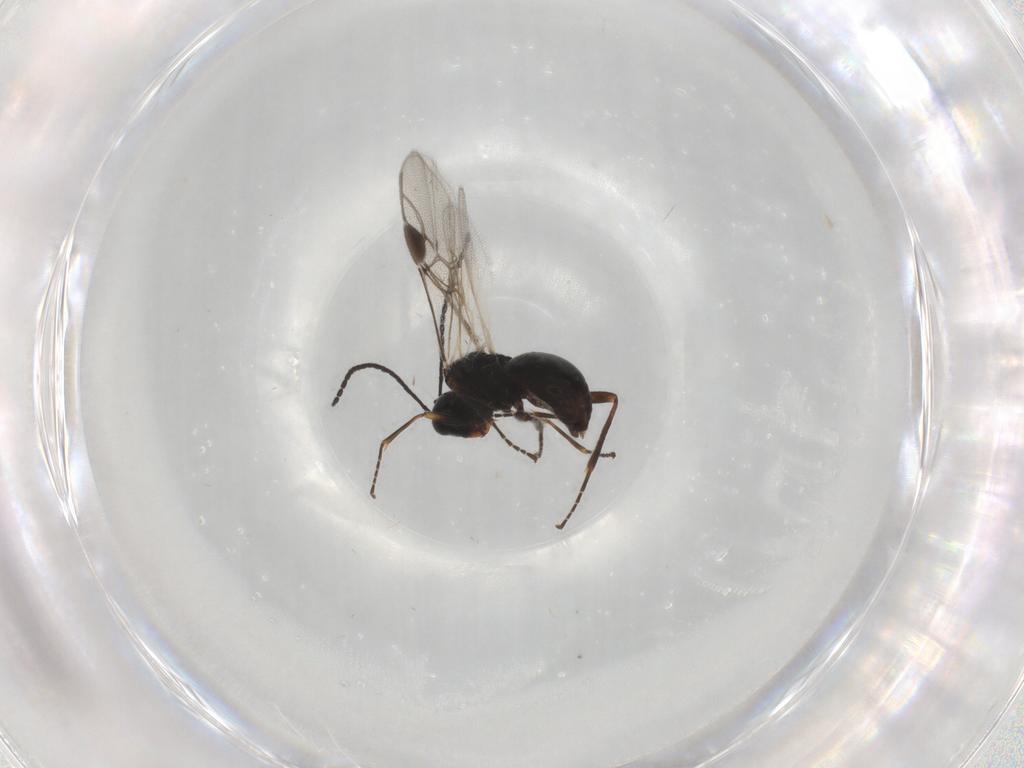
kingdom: Animalia
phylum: Arthropoda
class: Insecta
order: Hymenoptera
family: Braconidae
